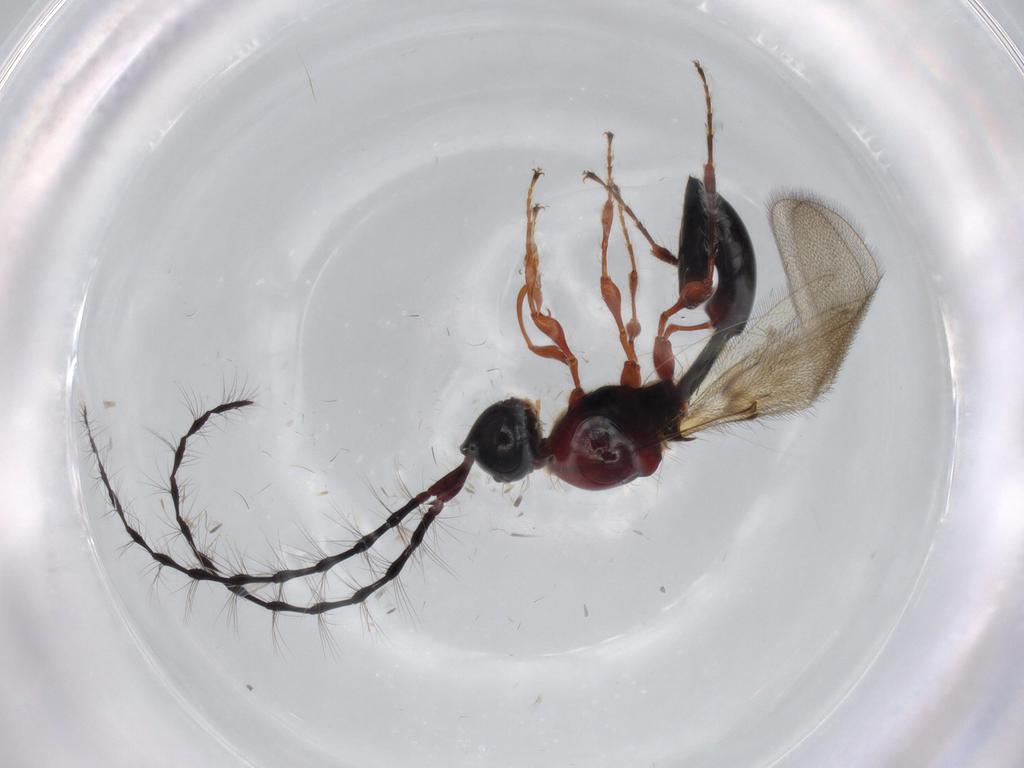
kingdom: Animalia
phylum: Arthropoda
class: Insecta
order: Hymenoptera
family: Diapriidae
